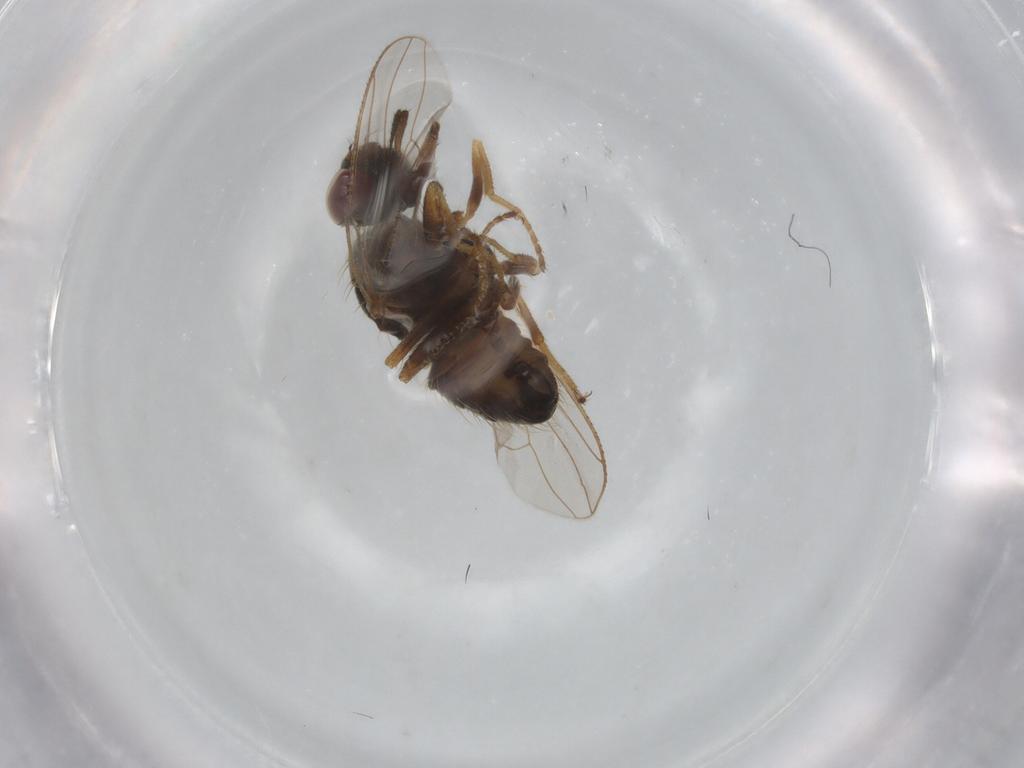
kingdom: Animalia
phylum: Arthropoda
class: Insecta
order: Diptera
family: Muscidae
